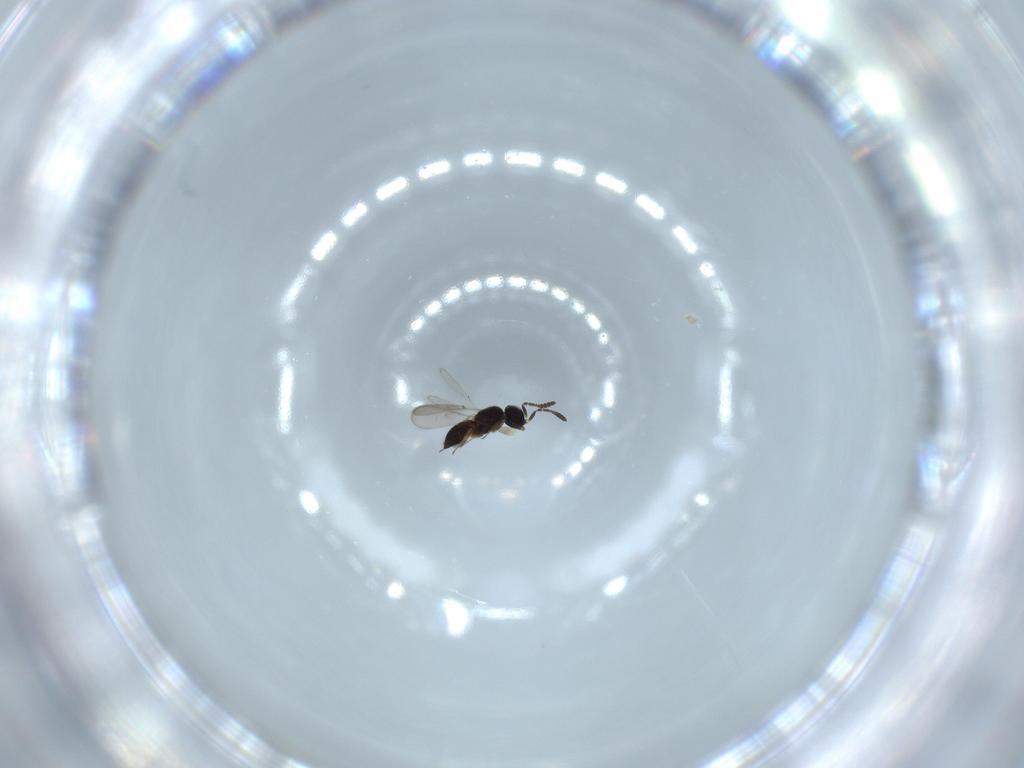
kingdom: Animalia
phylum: Arthropoda
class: Insecta
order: Hymenoptera
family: Scelionidae
